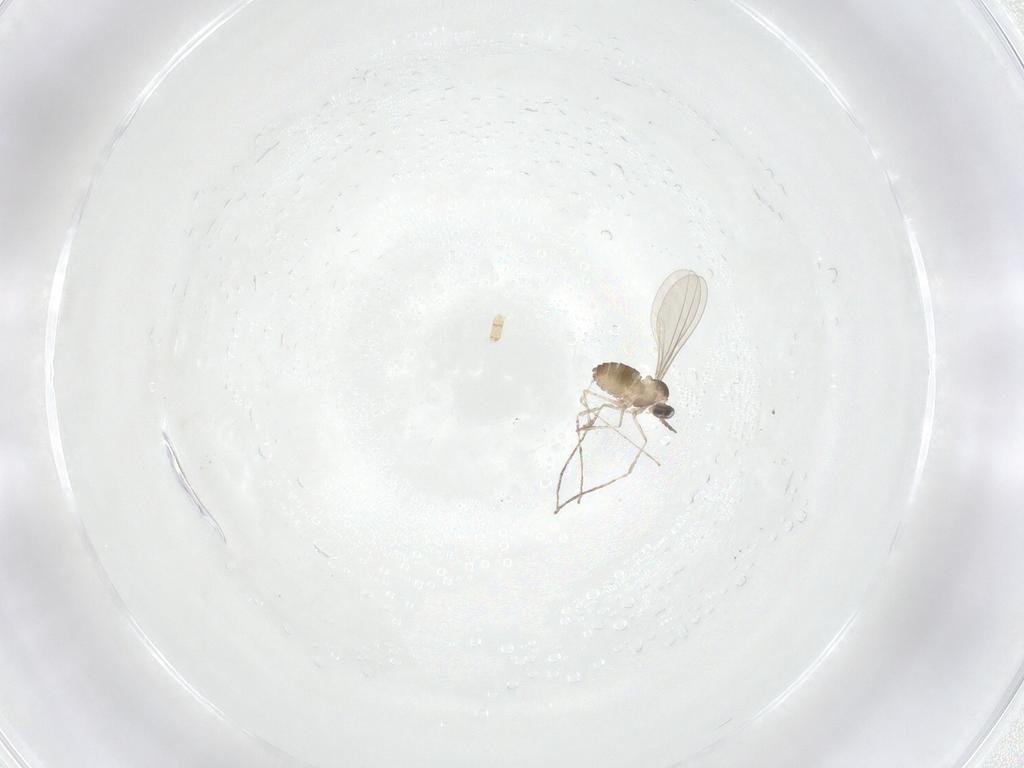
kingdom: Animalia
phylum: Arthropoda
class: Insecta
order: Diptera
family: Cecidomyiidae
